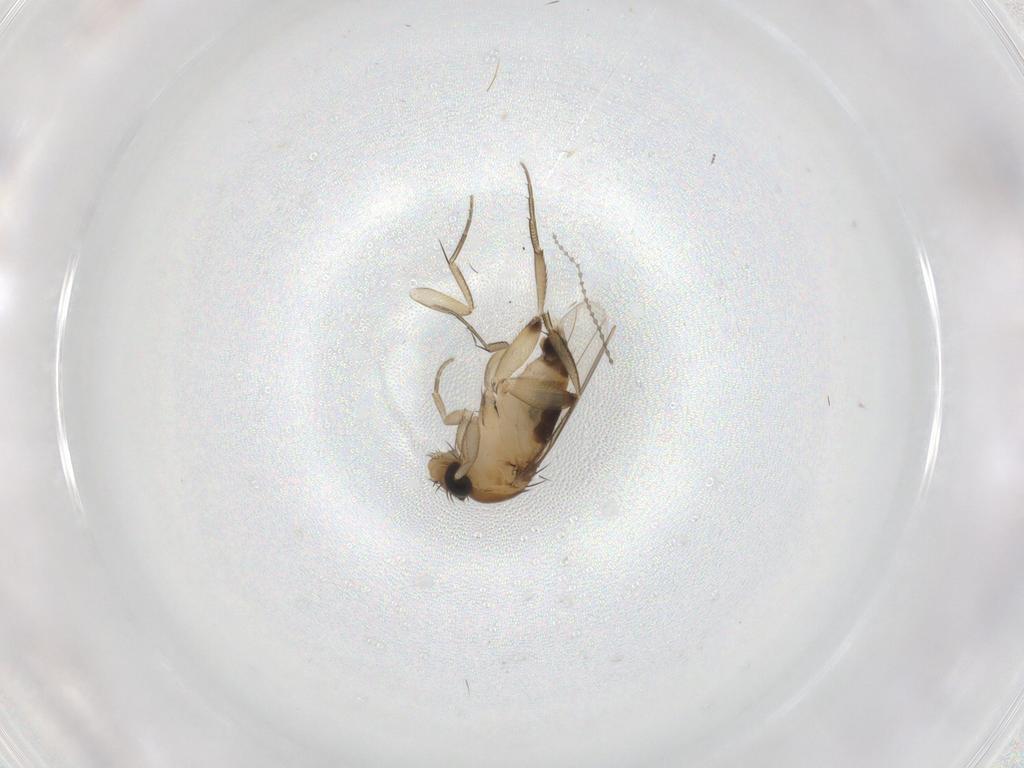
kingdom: Animalia
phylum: Arthropoda
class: Insecta
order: Diptera
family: Phoridae
